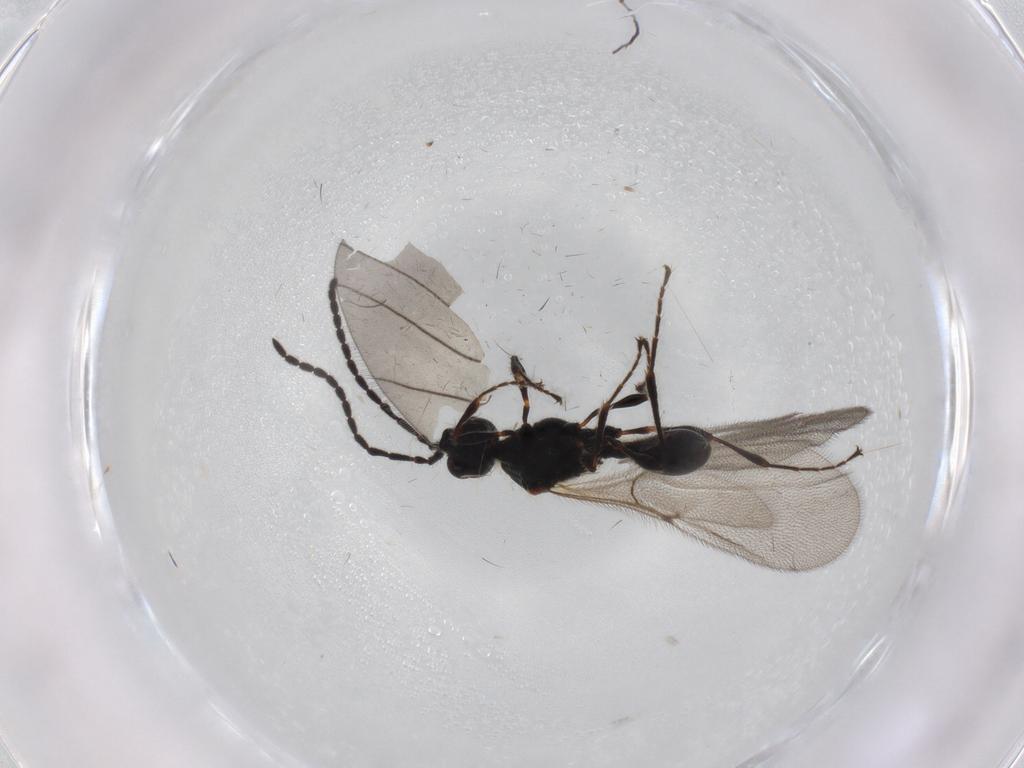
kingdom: Animalia
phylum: Arthropoda
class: Insecta
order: Hymenoptera
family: Diapriidae
